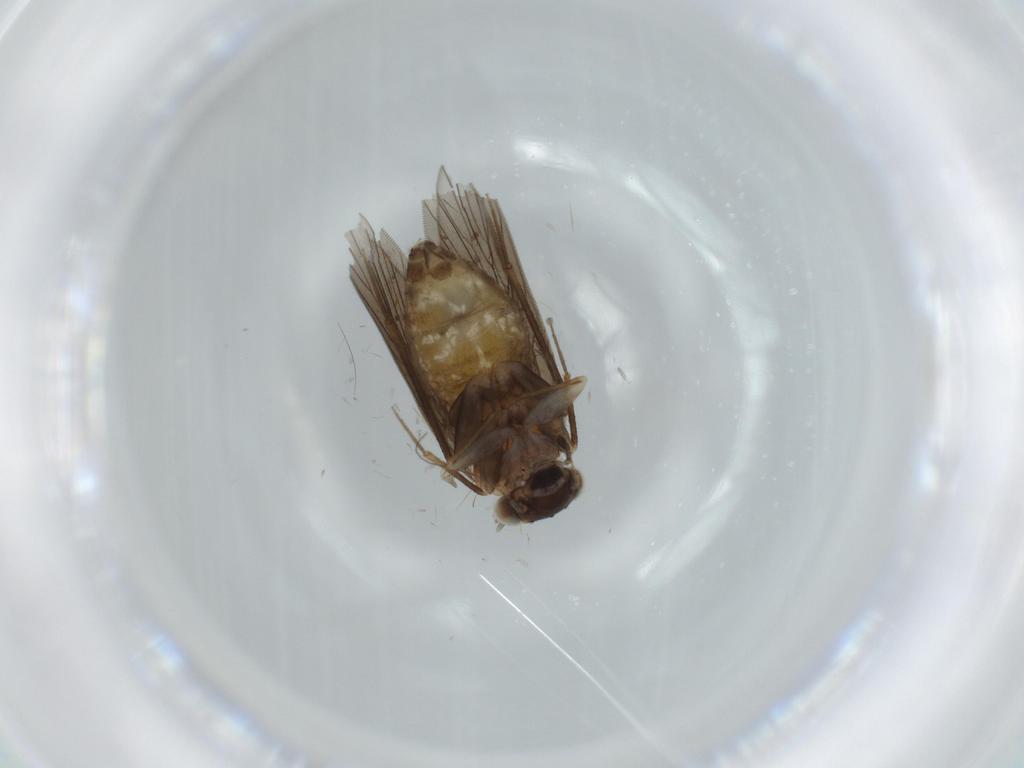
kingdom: Animalia
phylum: Arthropoda
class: Insecta
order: Psocodea
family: Lepidopsocidae
